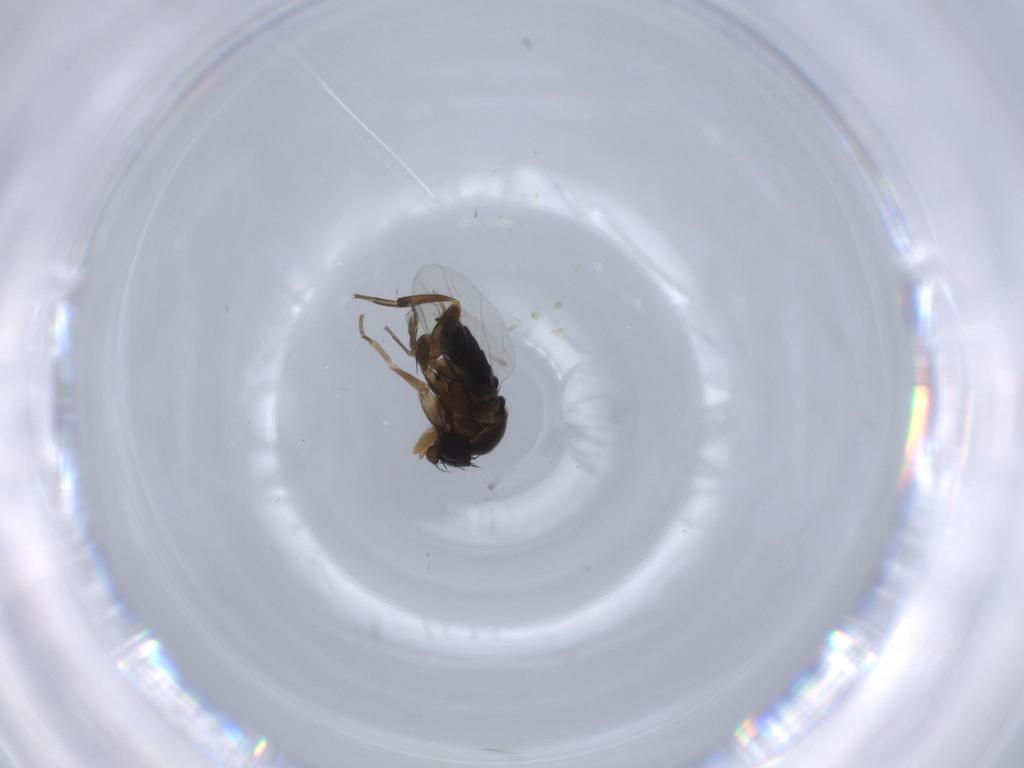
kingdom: Animalia
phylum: Arthropoda
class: Insecta
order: Diptera
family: Phoridae
